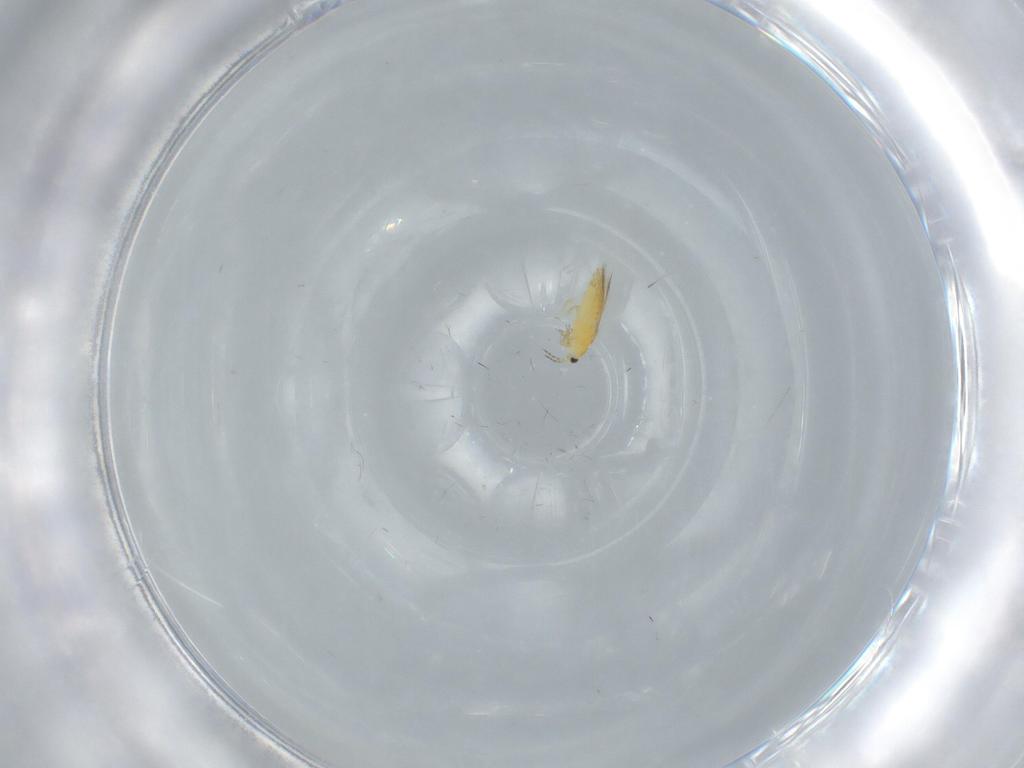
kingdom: Animalia
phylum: Arthropoda
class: Insecta
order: Thysanoptera
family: Thripidae
